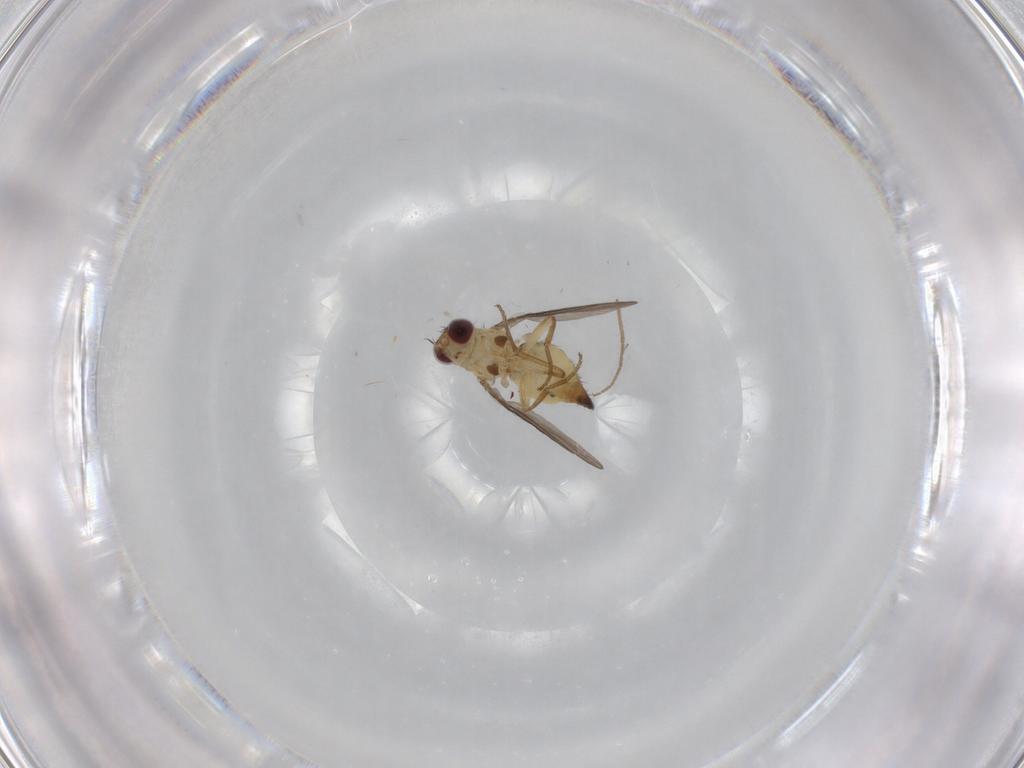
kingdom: Animalia
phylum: Arthropoda
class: Insecta
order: Diptera
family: Agromyzidae
